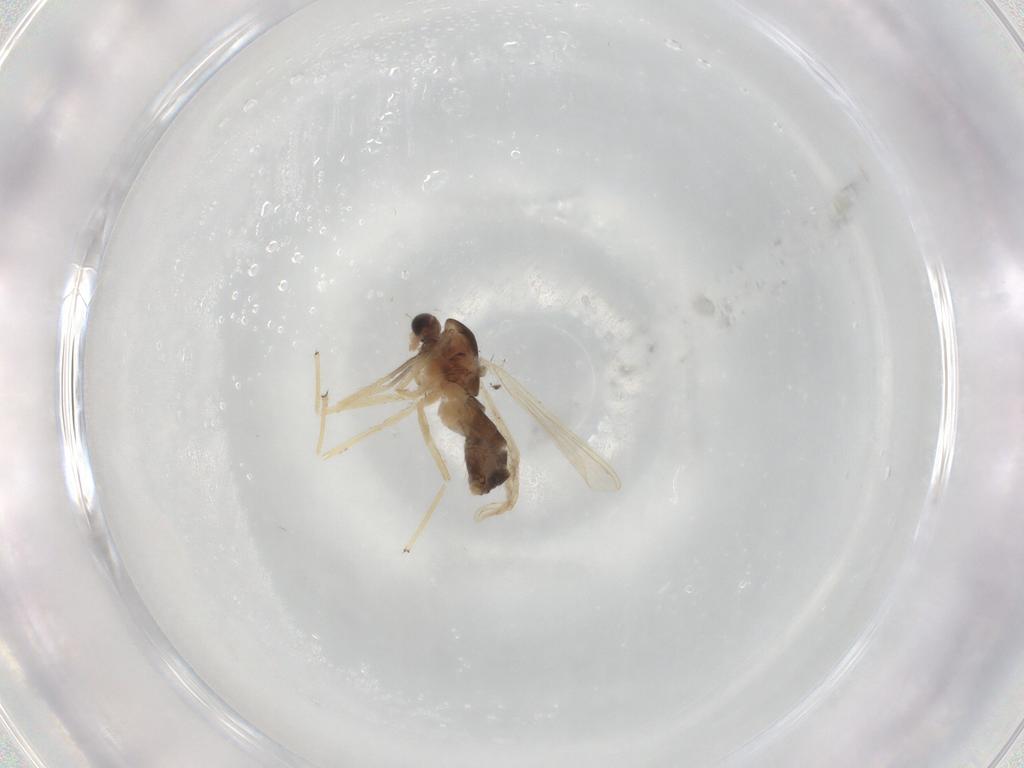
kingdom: Animalia
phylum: Arthropoda
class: Insecta
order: Diptera
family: Chironomidae
